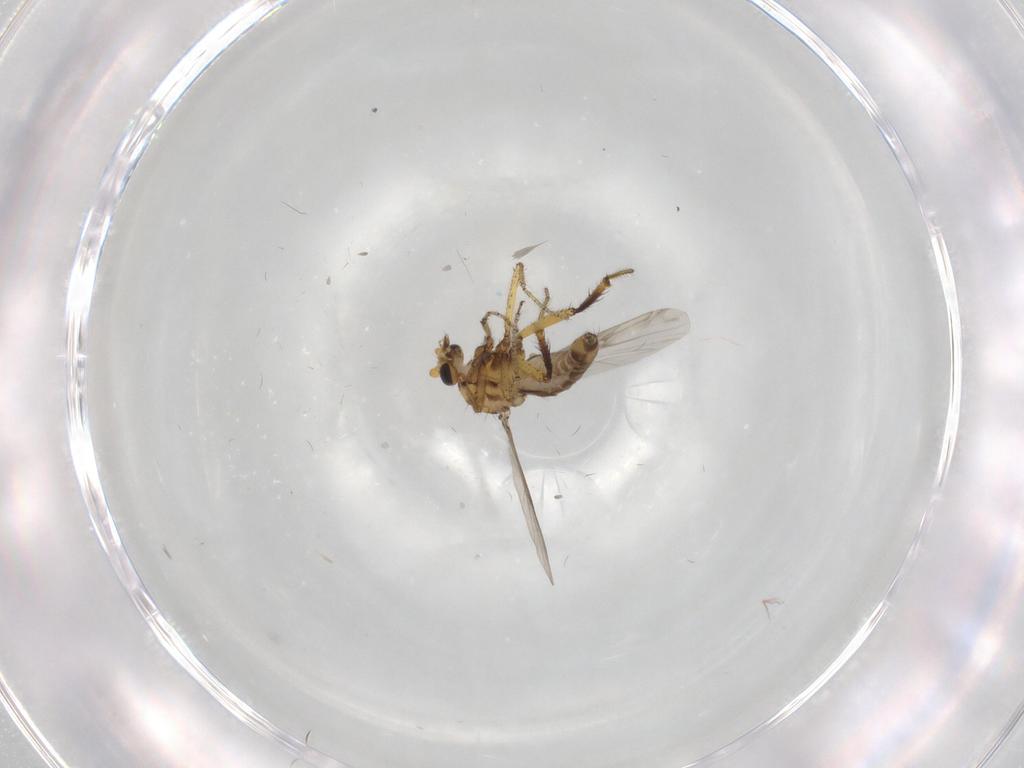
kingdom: Animalia
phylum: Arthropoda
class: Insecta
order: Diptera
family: Ceratopogonidae
